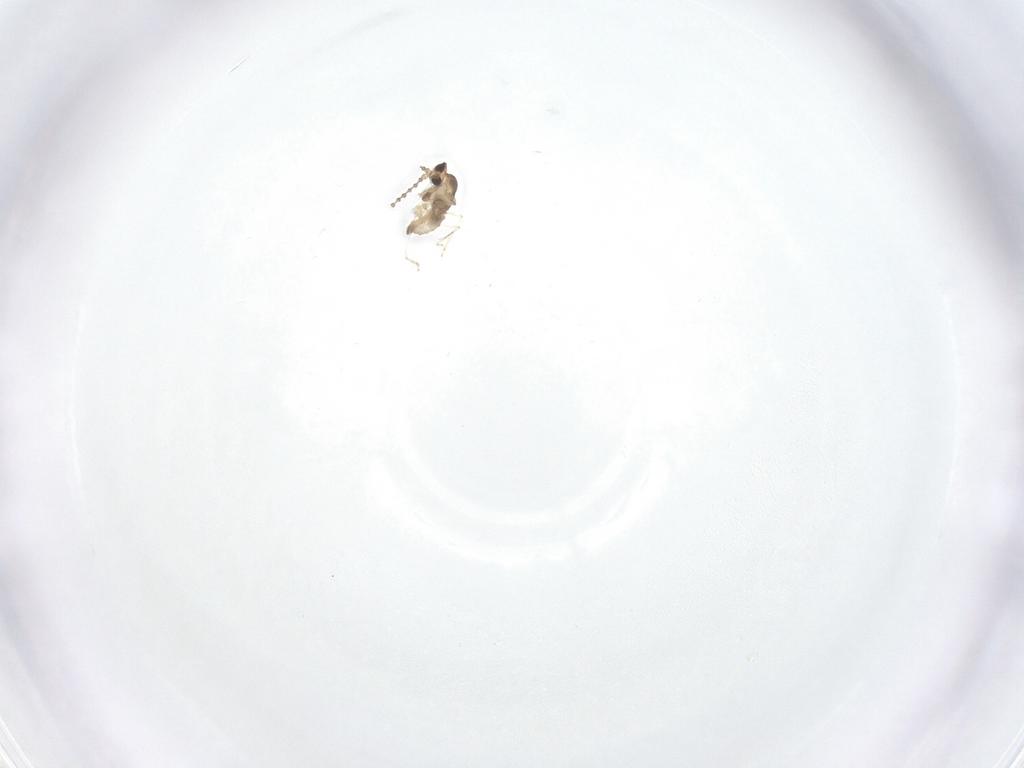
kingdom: Animalia
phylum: Arthropoda
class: Insecta
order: Diptera
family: Cecidomyiidae
